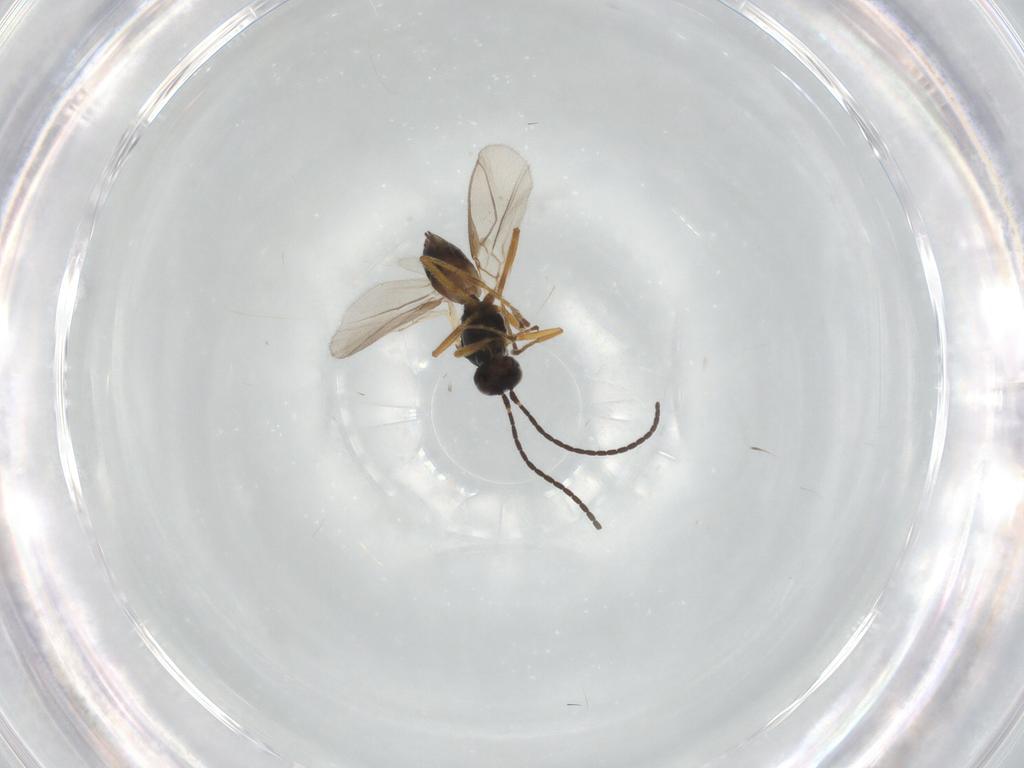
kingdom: Animalia
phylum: Arthropoda
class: Insecta
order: Hymenoptera
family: Braconidae
